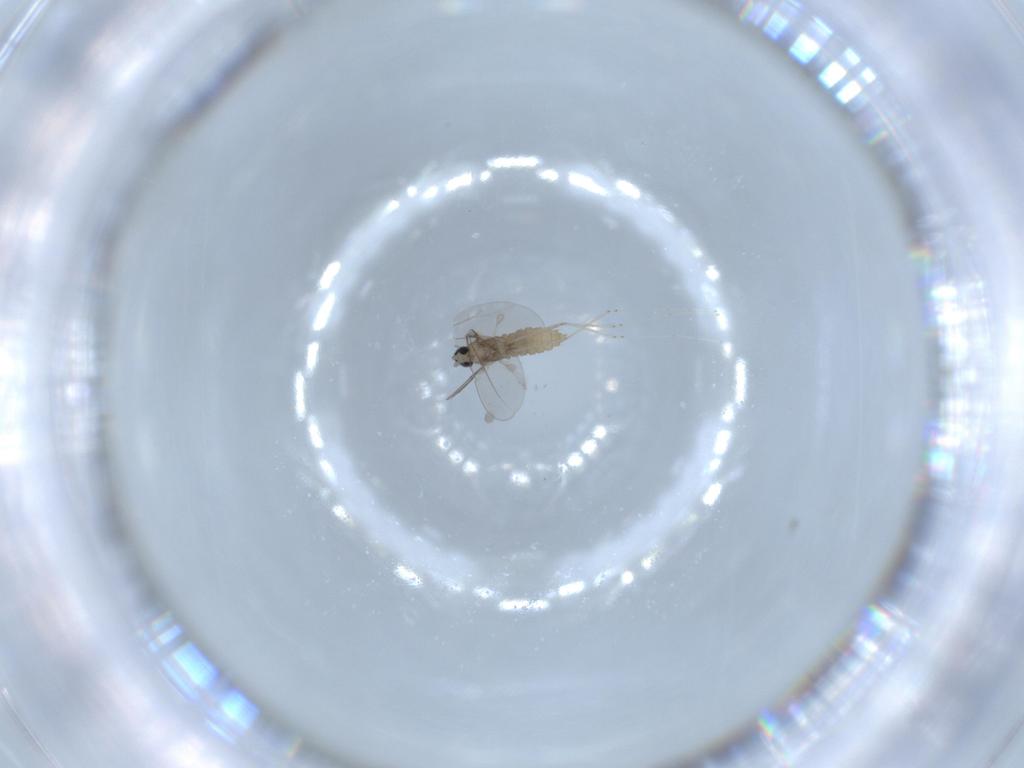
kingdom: Animalia
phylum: Arthropoda
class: Insecta
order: Diptera
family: Cecidomyiidae
